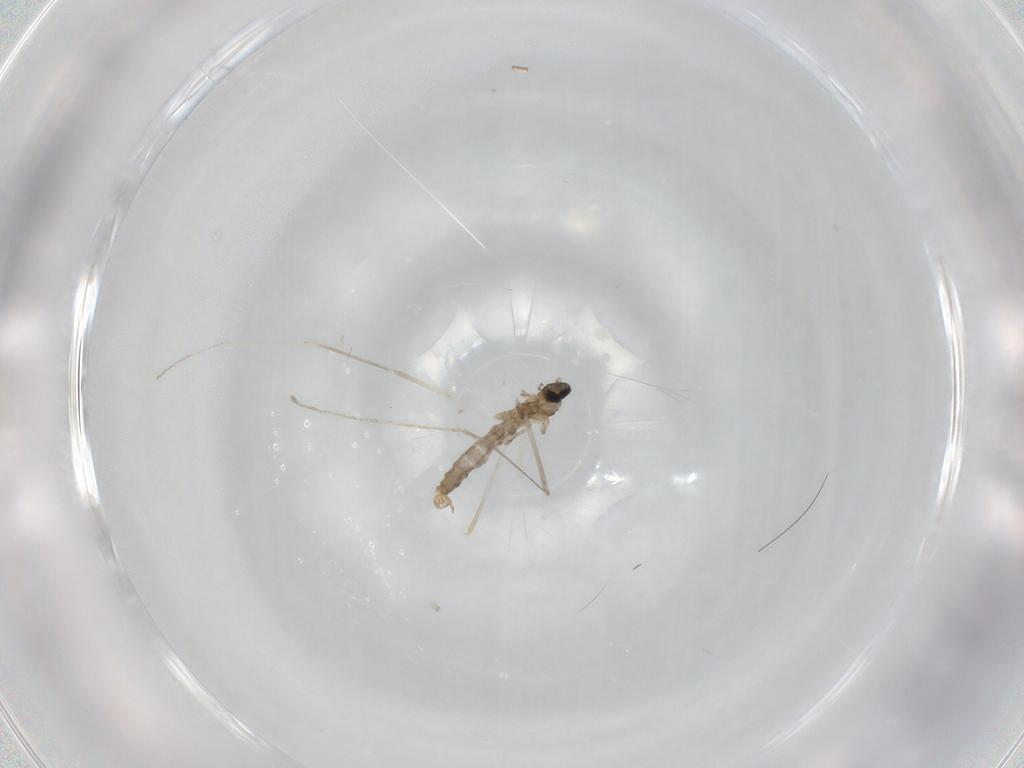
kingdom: Animalia
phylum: Arthropoda
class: Insecta
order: Diptera
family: Cecidomyiidae
